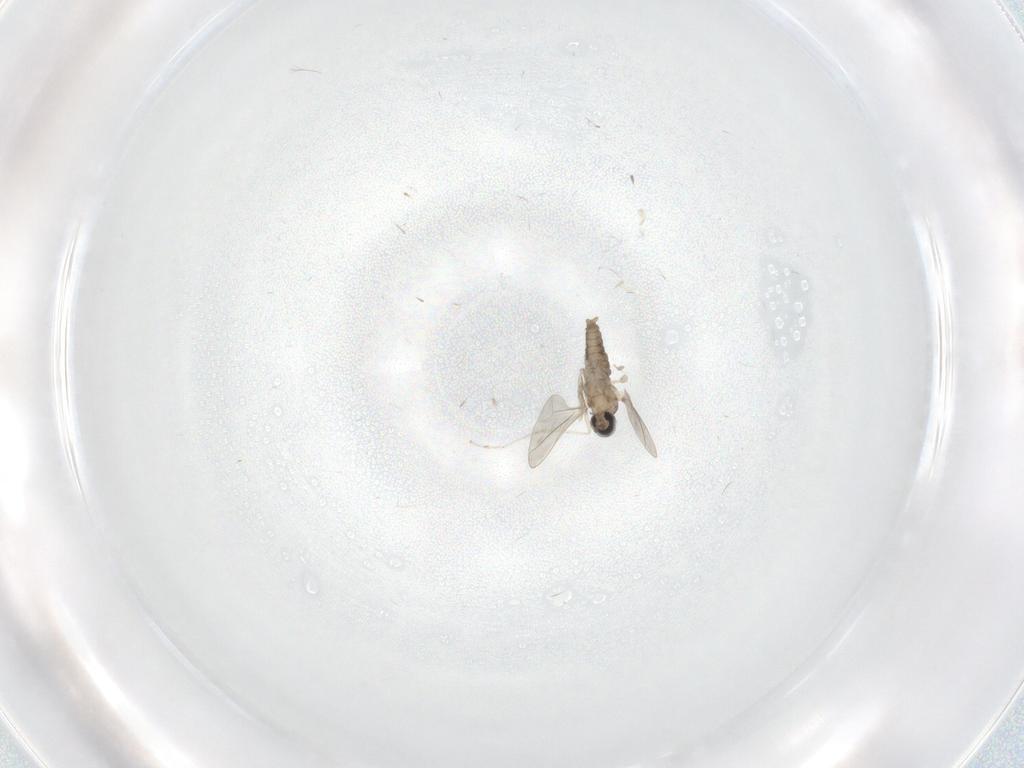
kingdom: Animalia
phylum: Arthropoda
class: Insecta
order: Diptera
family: Cecidomyiidae
